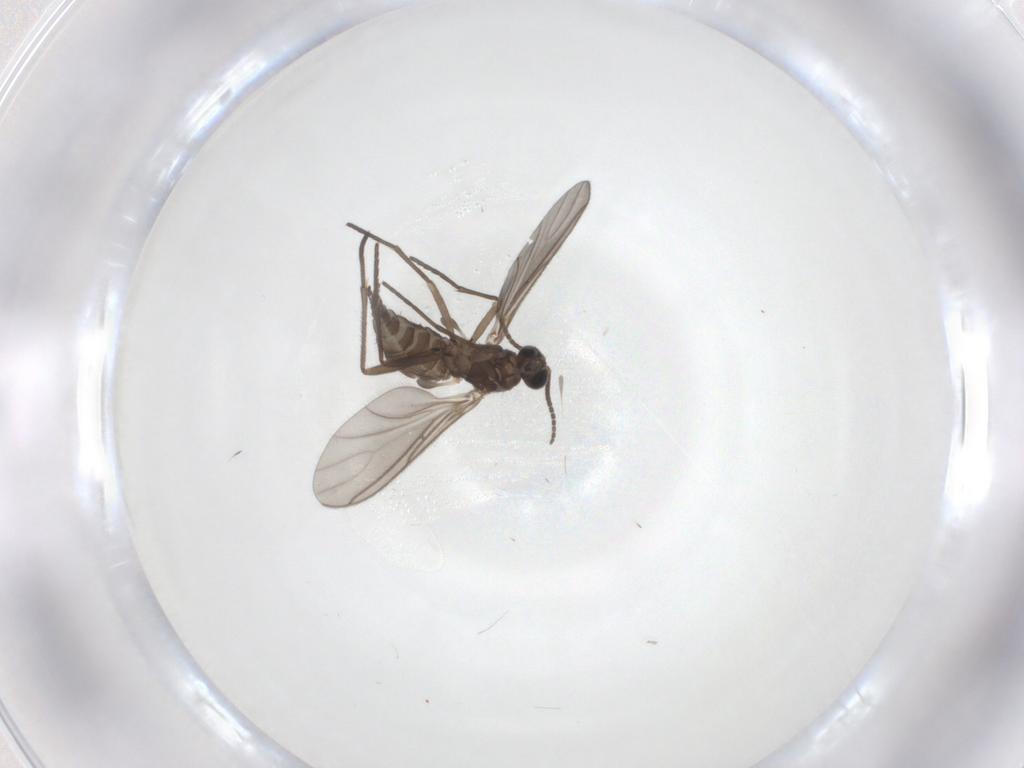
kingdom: Animalia
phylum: Arthropoda
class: Insecta
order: Diptera
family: Sciaridae
